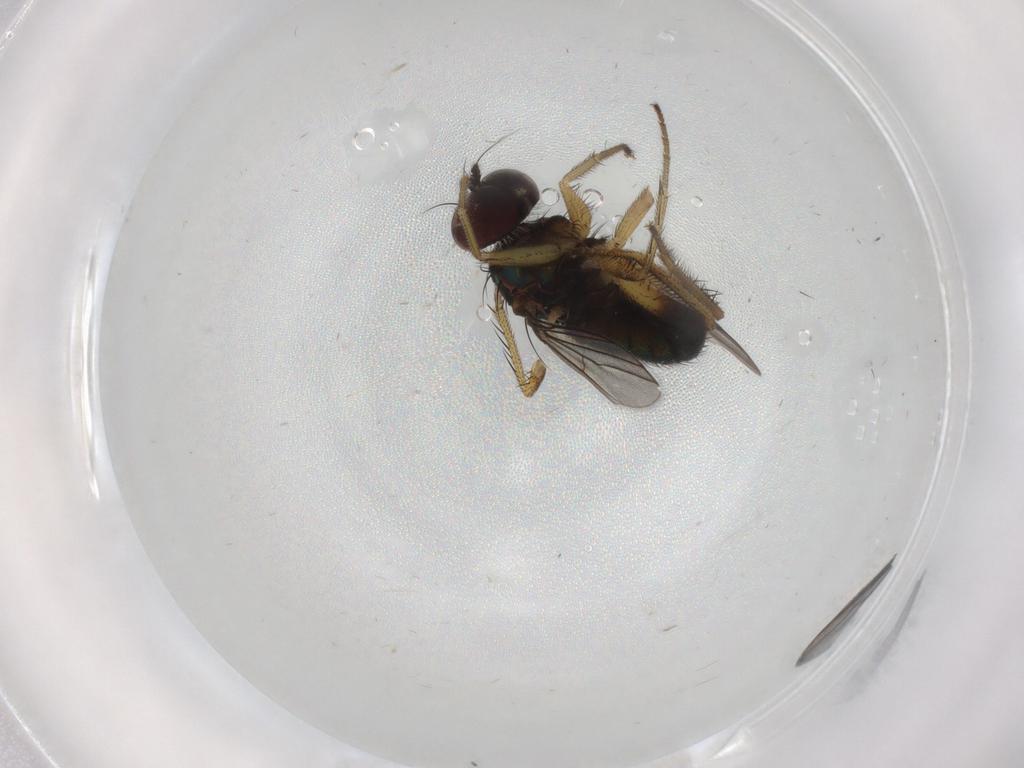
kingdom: Animalia
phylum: Arthropoda
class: Insecta
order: Diptera
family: Dolichopodidae
